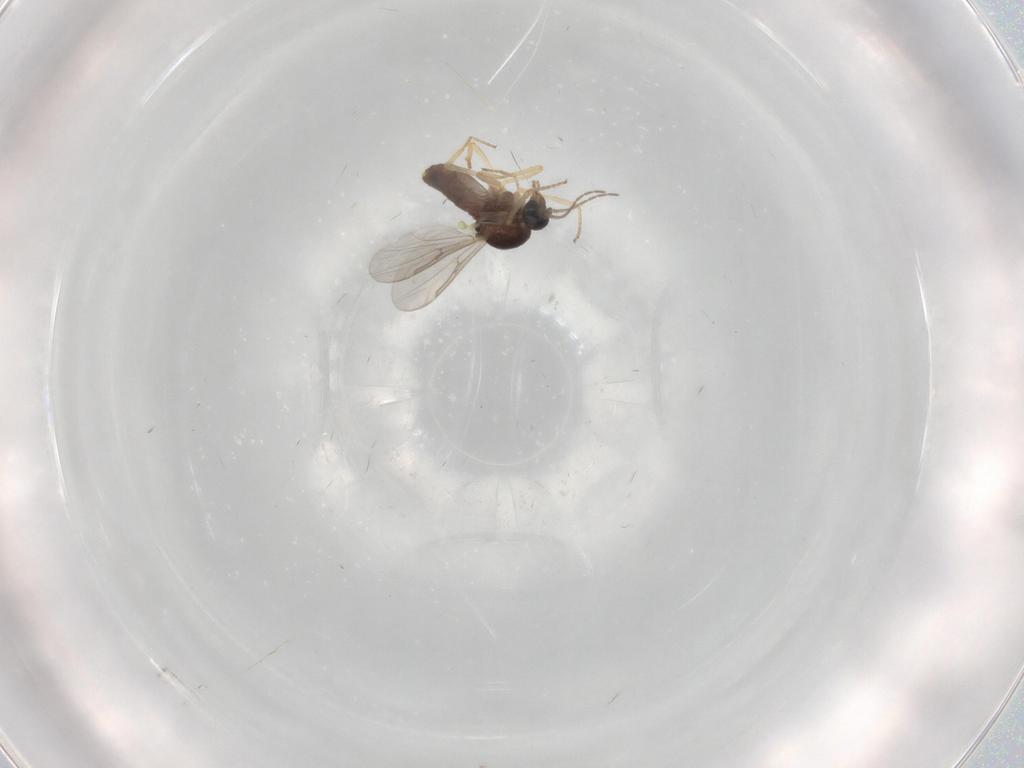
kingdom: Animalia
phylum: Arthropoda
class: Insecta
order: Diptera
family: Ceratopogonidae
